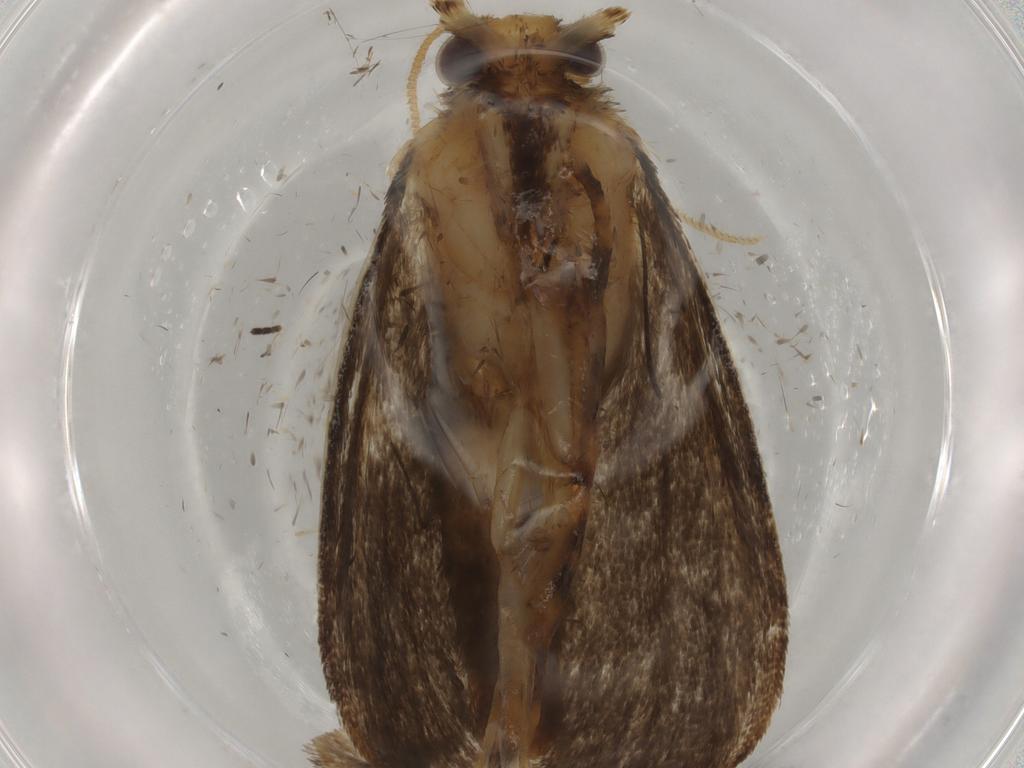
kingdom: Animalia
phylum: Arthropoda
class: Insecta
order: Lepidoptera
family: Tineidae
